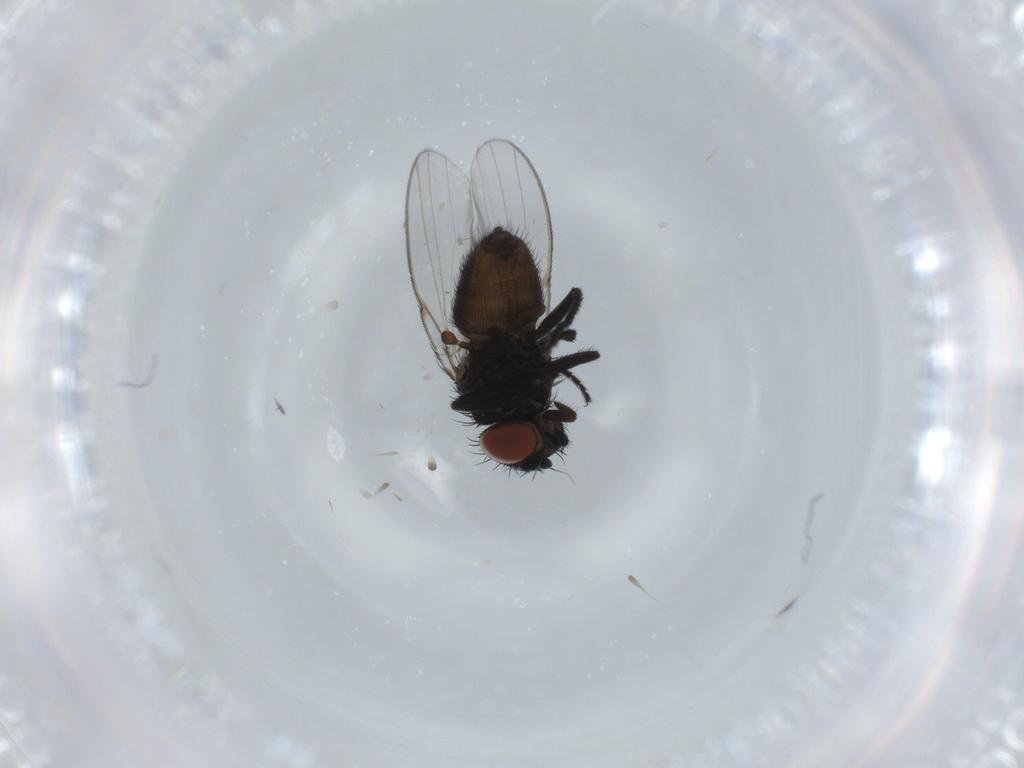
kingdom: Animalia
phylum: Arthropoda
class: Insecta
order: Diptera
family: Milichiidae
